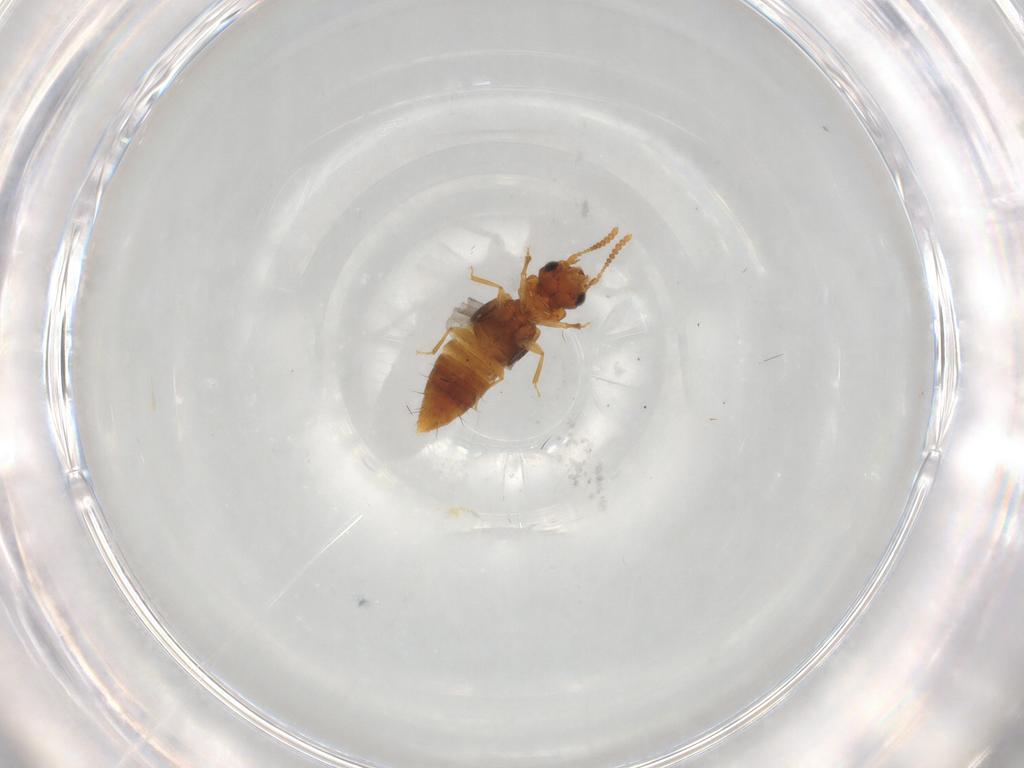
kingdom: Animalia
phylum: Arthropoda
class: Insecta
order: Coleoptera
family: Staphylinidae
